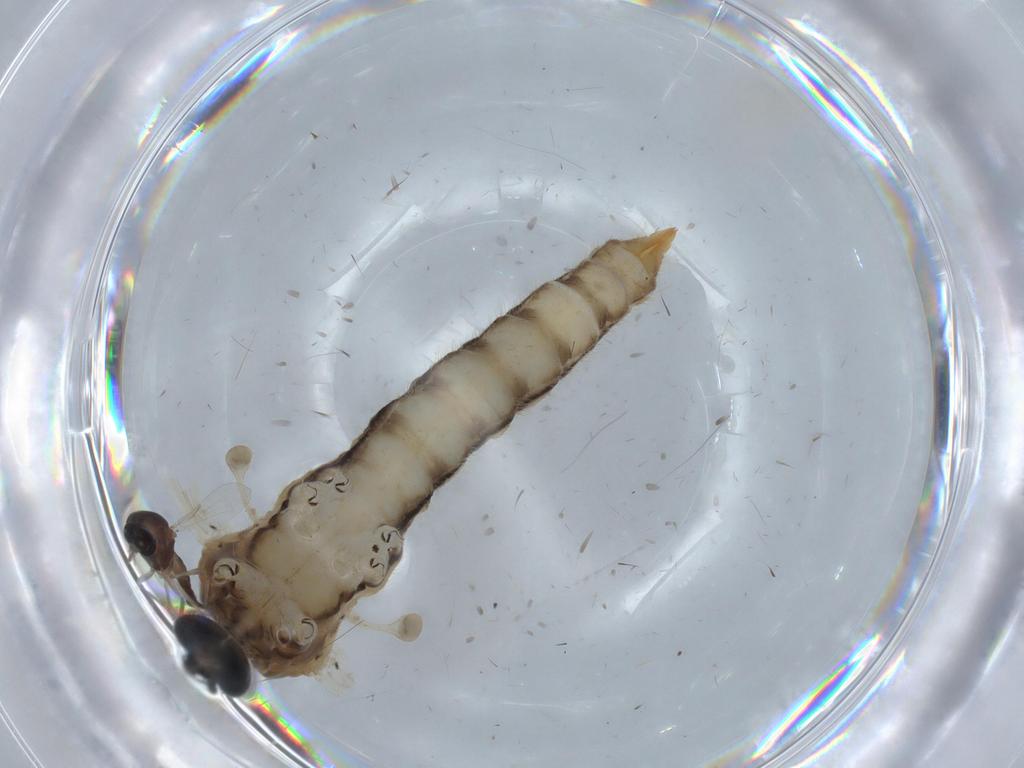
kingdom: Animalia
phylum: Arthropoda
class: Insecta
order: Diptera
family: Ceratopogonidae
